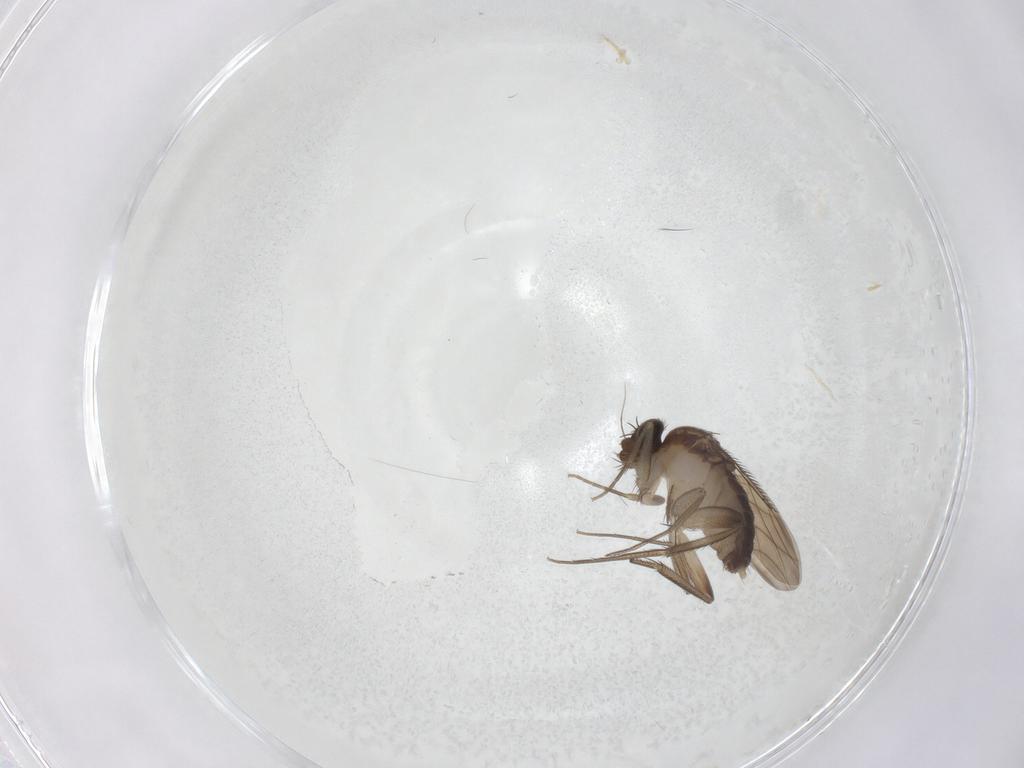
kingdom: Animalia
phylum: Arthropoda
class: Insecta
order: Diptera
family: Phoridae
